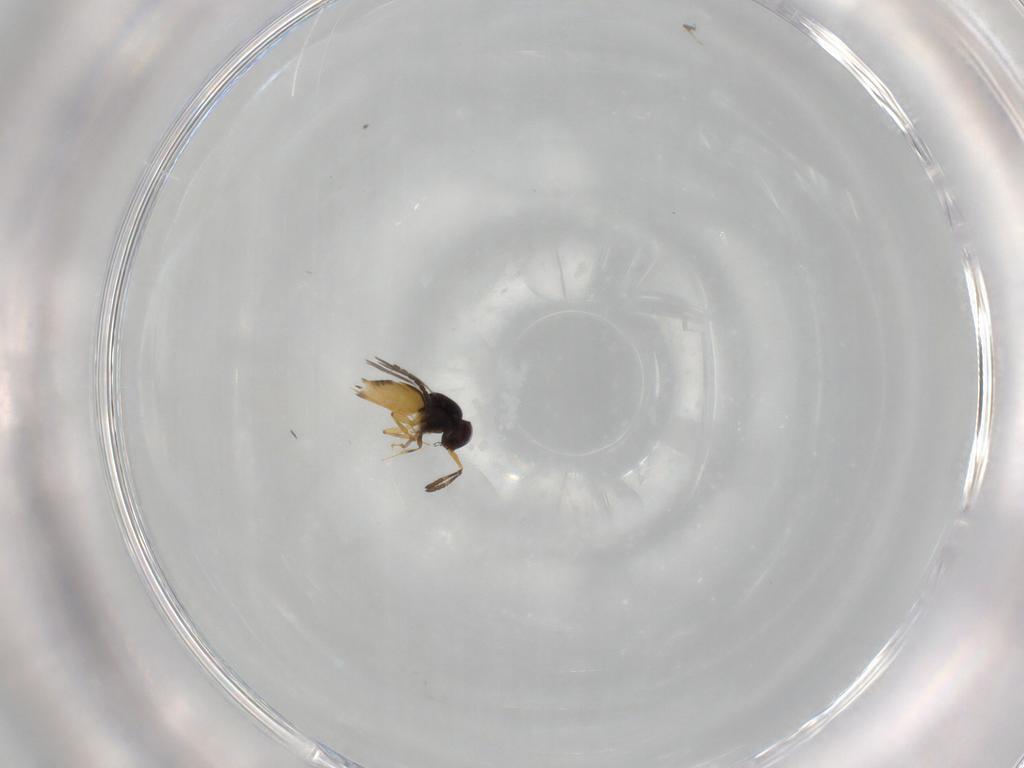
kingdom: Animalia
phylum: Arthropoda
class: Insecta
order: Hymenoptera
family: Ceraphronidae
